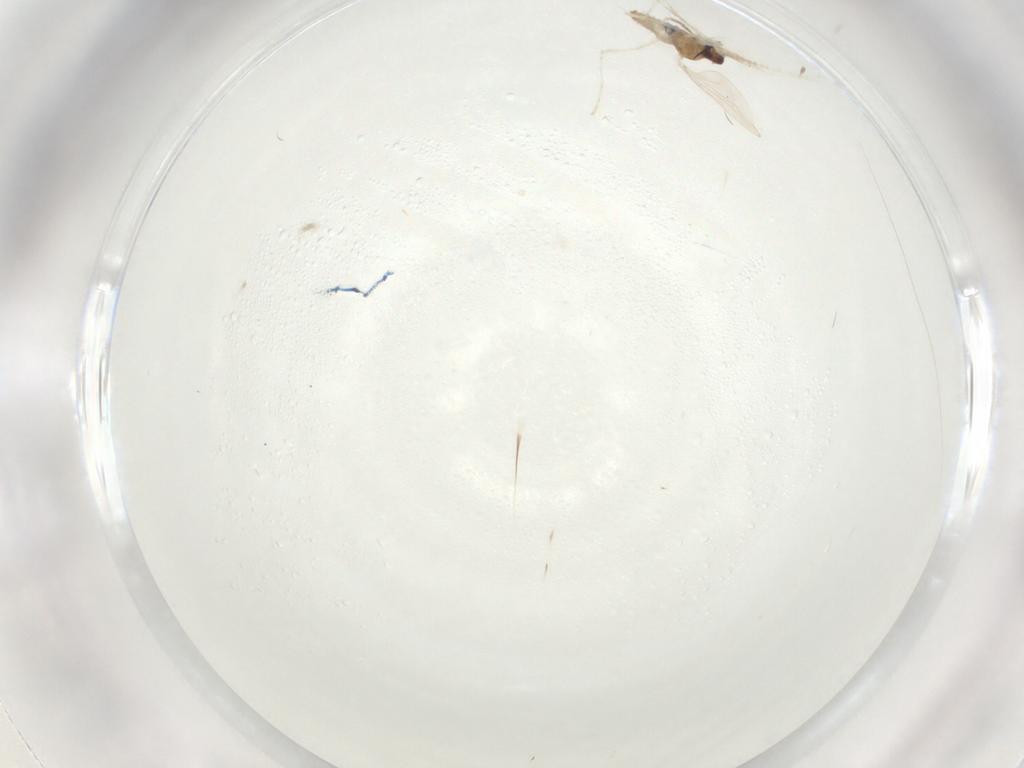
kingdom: Animalia
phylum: Arthropoda
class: Insecta
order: Diptera
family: Cecidomyiidae
